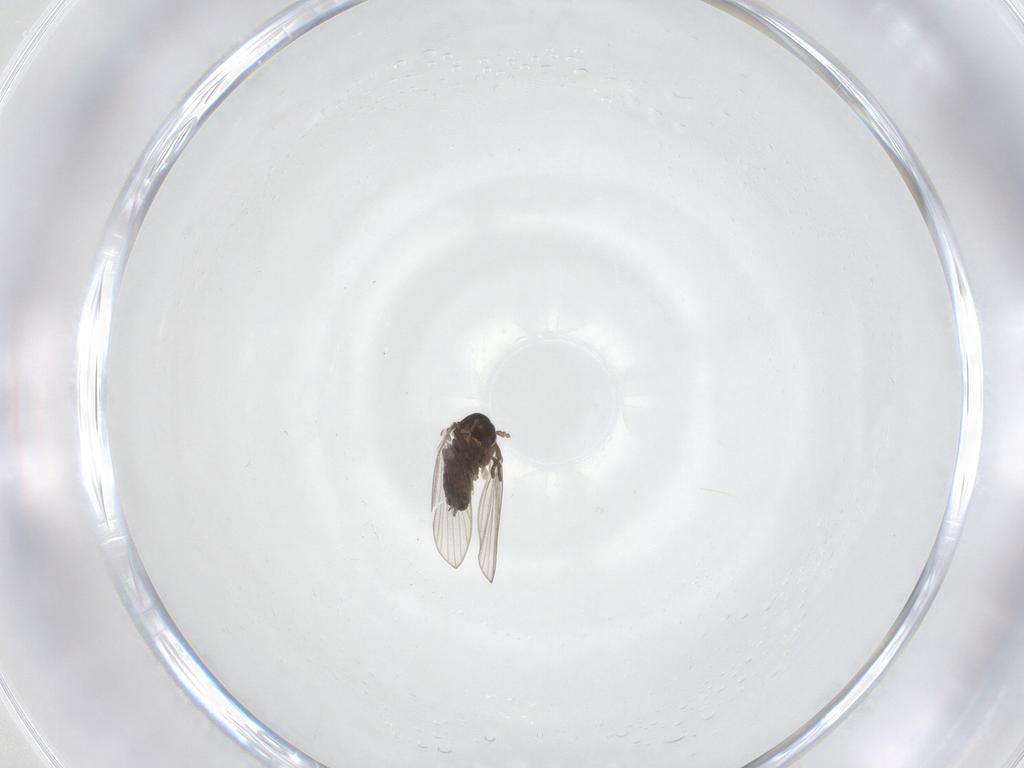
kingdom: Animalia
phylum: Arthropoda
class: Insecta
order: Diptera
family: Psychodidae
